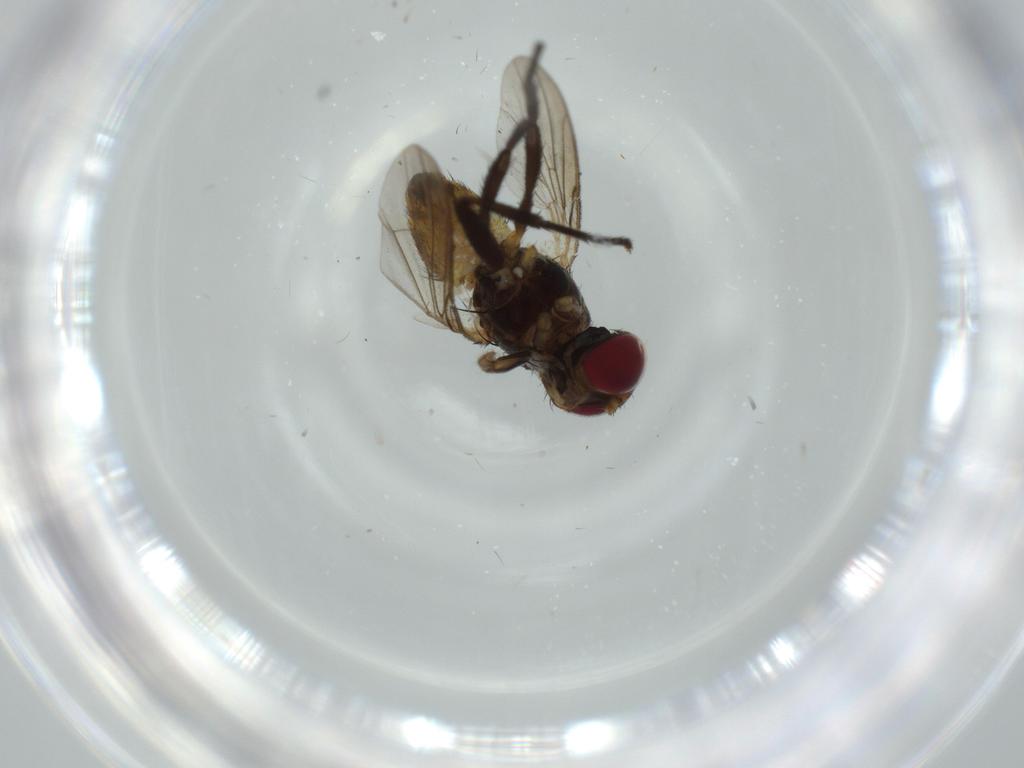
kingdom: Animalia
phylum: Arthropoda
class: Insecta
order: Diptera
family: Anthomyiidae
